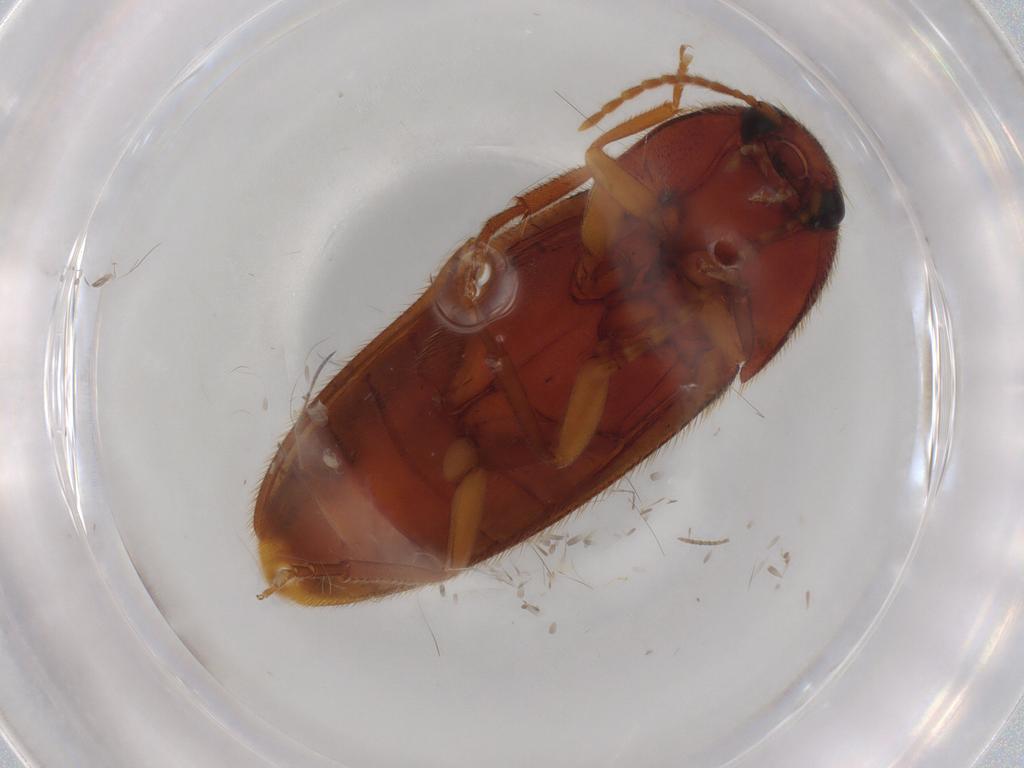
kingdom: Animalia
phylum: Arthropoda
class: Insecta
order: Coleoptera
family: Elateridae
